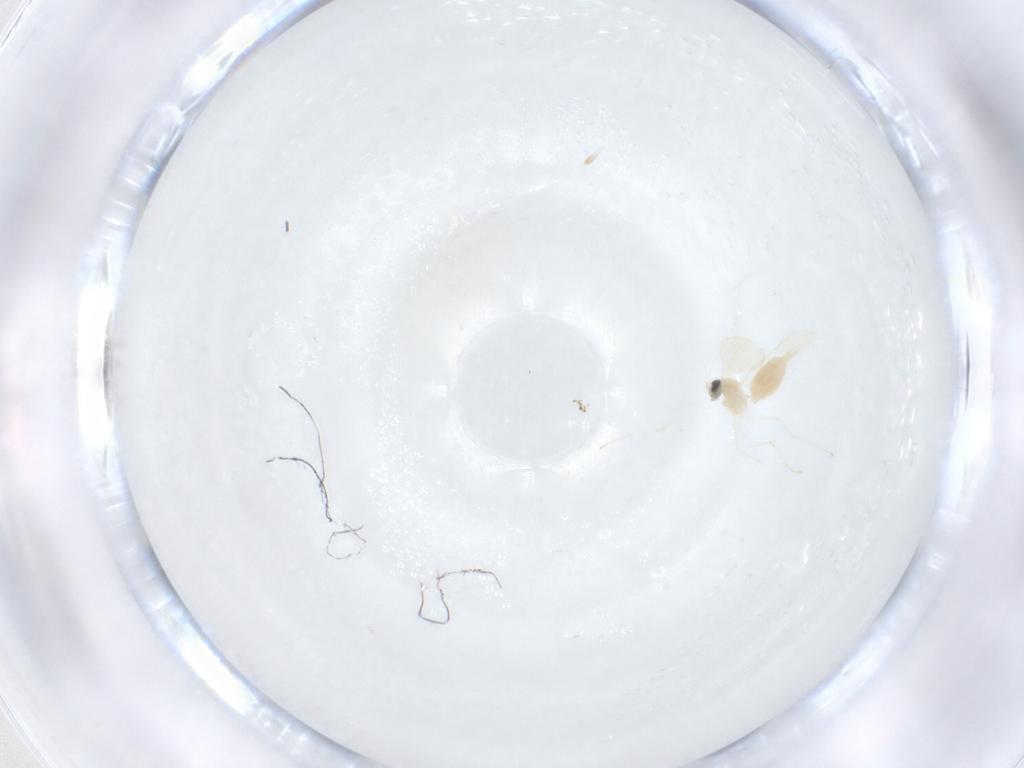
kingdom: Animalia
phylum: Arthropoda
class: Insecta
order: Diptera
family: Cecidomyiidae
